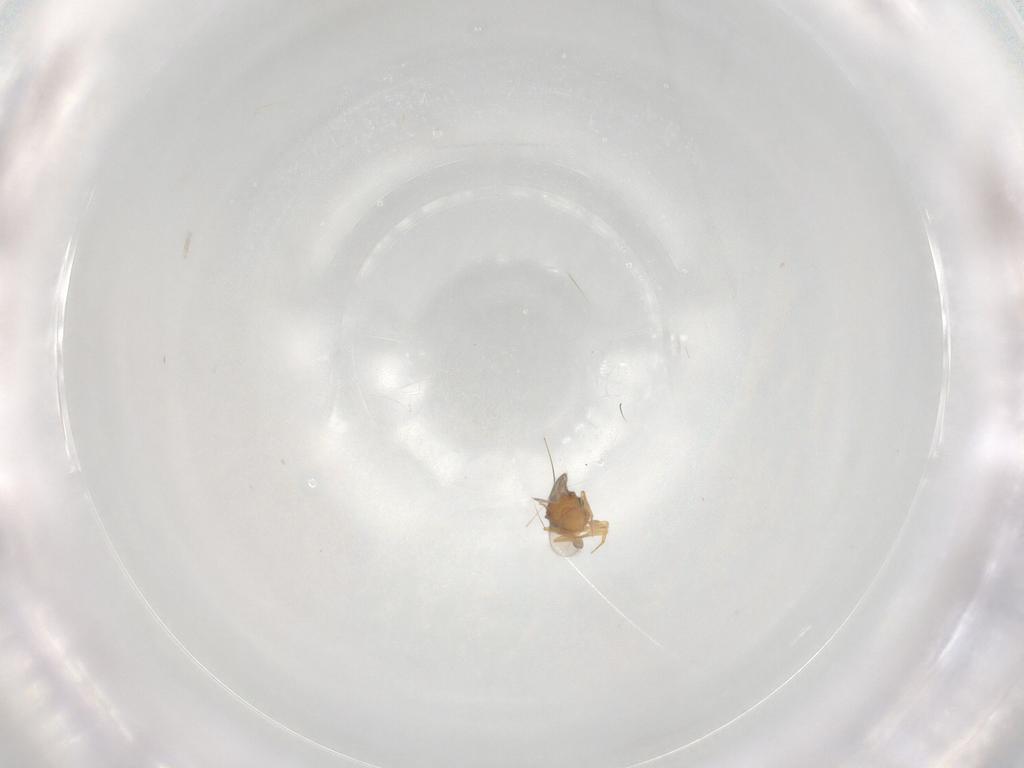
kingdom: Animalia
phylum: Arthropoda
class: Insecta
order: Hymenoptera
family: Scelionidae
